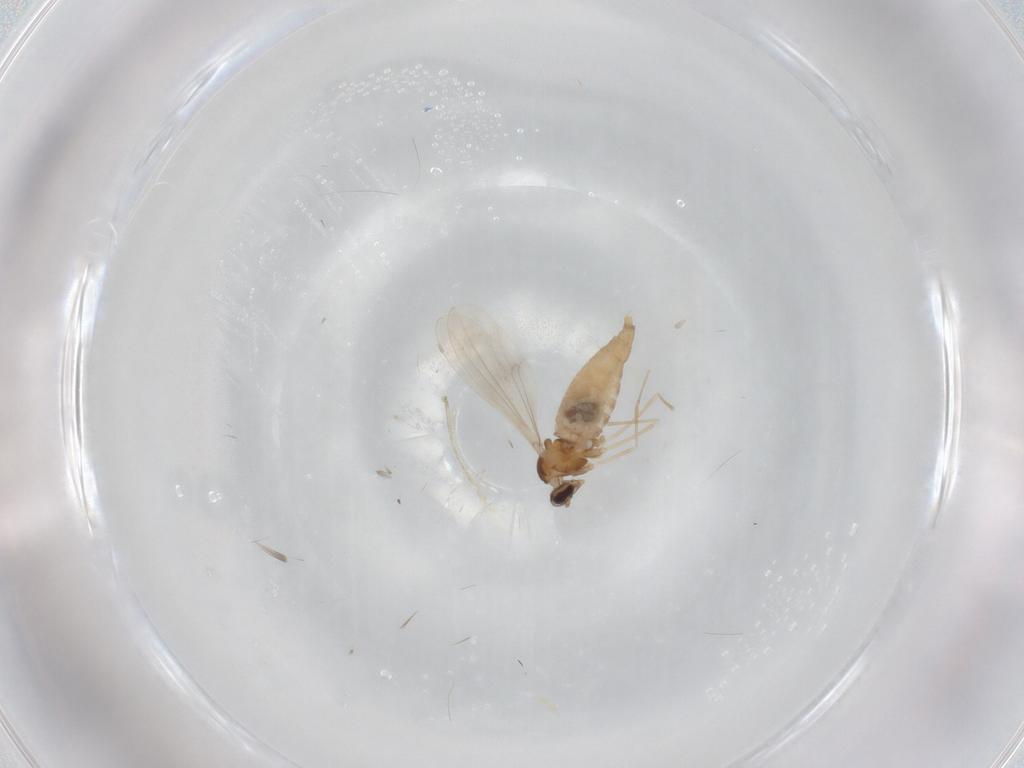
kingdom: Animalia
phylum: Arthropoda
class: Insecta
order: Diptera
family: Cecidomyiidae
